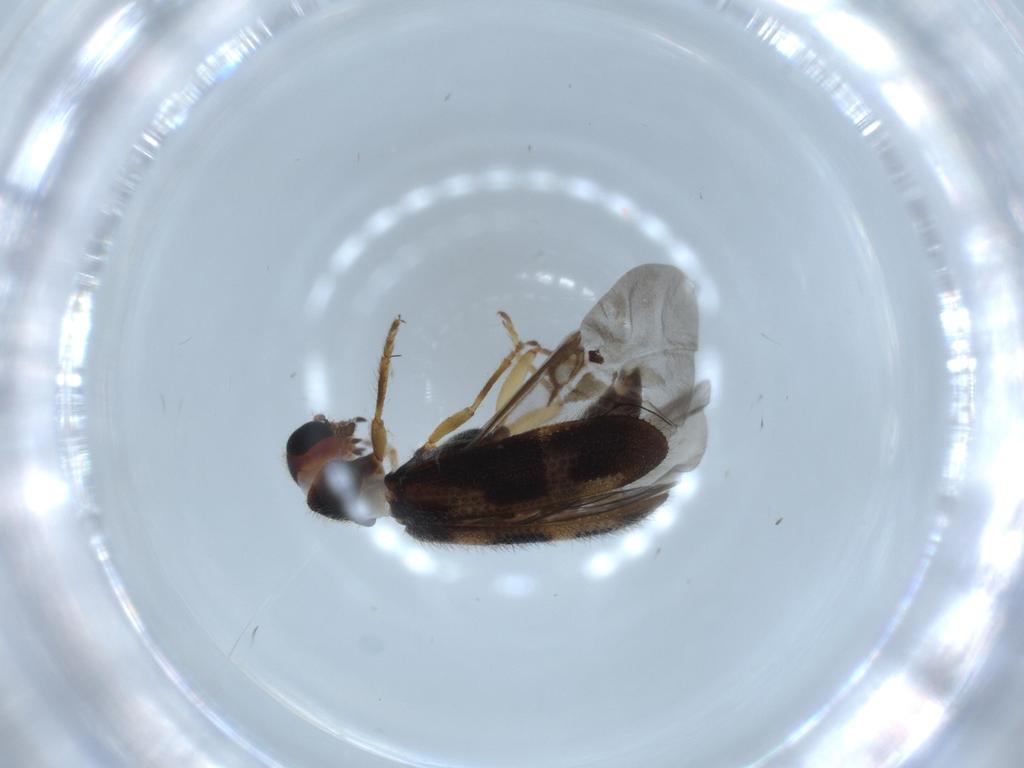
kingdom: Animalia
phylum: Arthropoda
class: Insecta
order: Coleoptera
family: Cleridae
